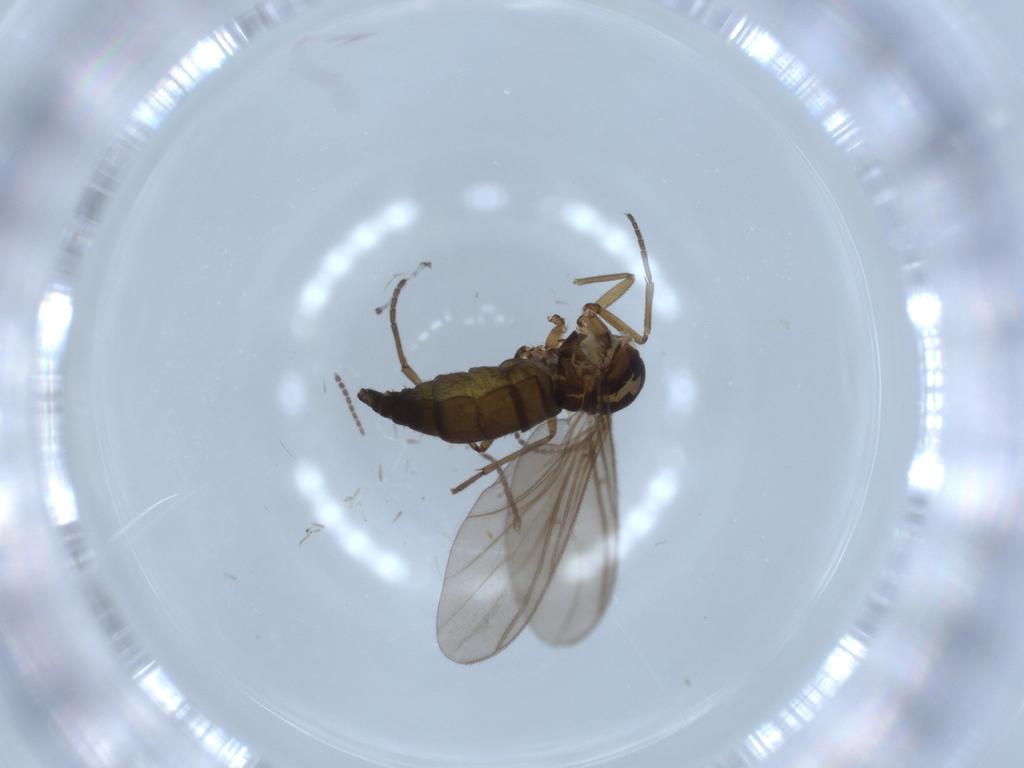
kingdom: Animalia
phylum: Arthropoda
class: Insecta
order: Diptera
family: Sciaridae
